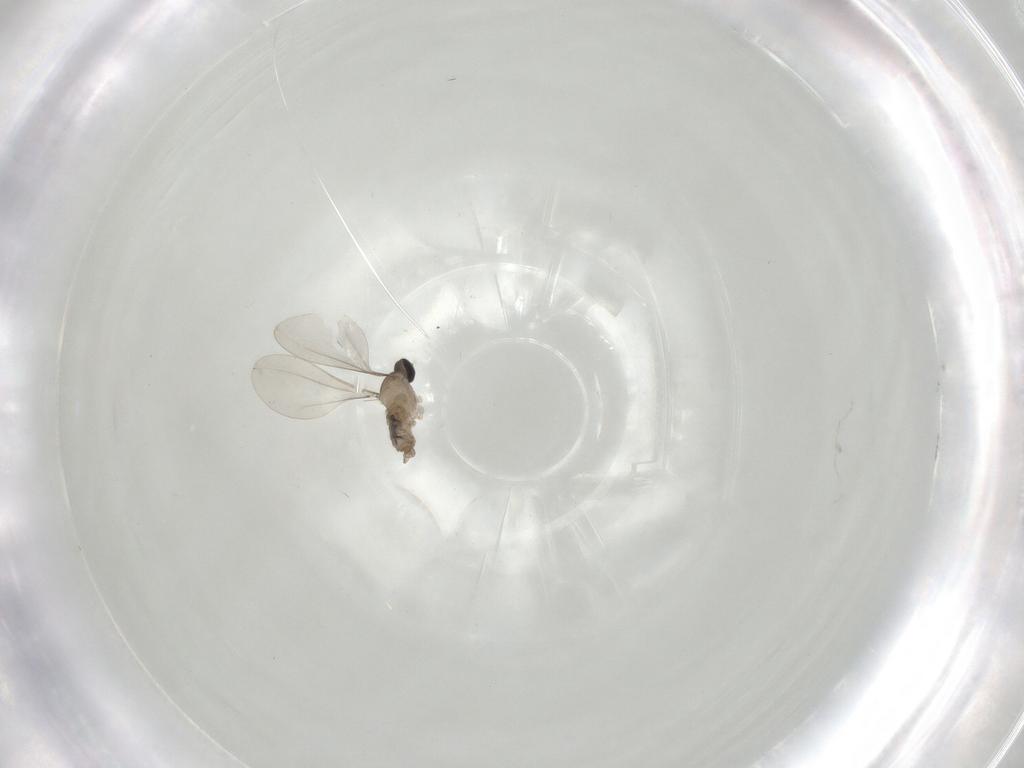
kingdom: Animalia
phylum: Arthropoda
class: Insecta
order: Diptera
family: Cecidomyiidae
